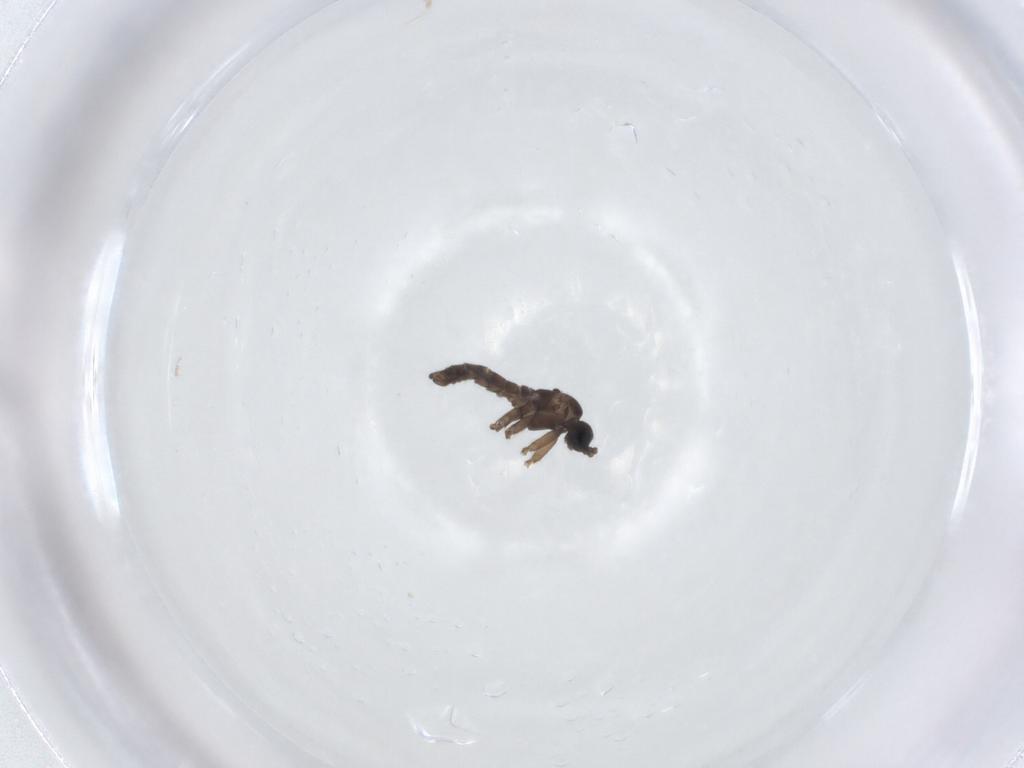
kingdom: Animalia
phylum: Arthropoda
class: Insecta
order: Diptera
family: Sciaridae
